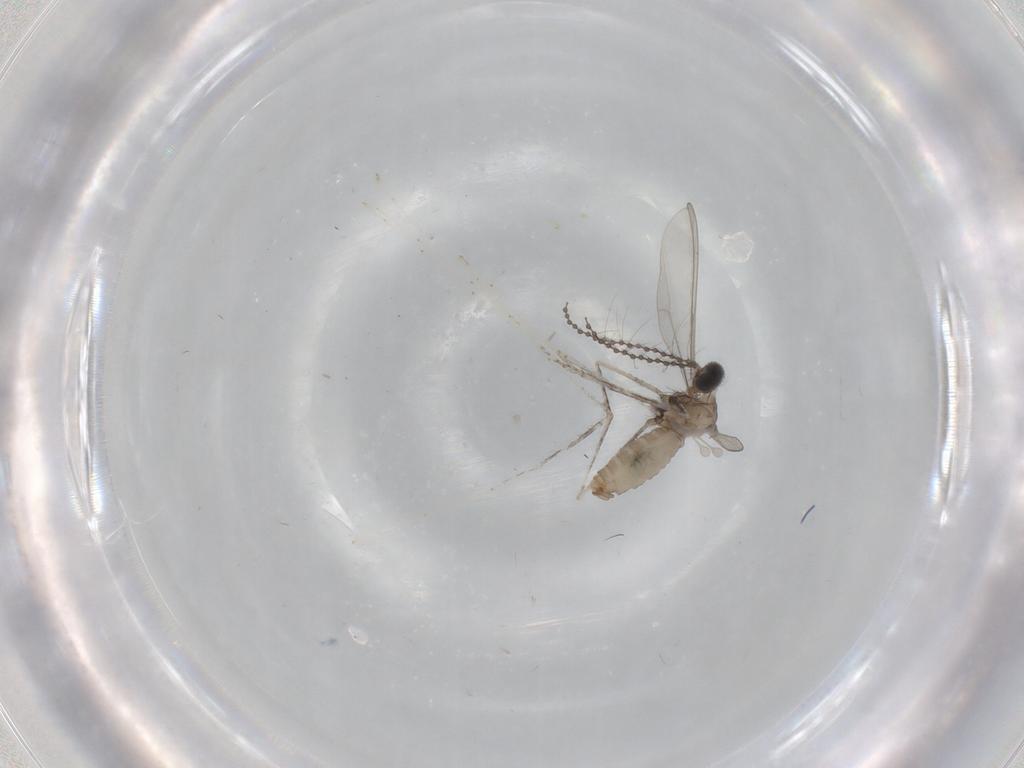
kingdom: Animalia
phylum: Arthropoda
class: Insecta
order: Diptera
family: Cecidomyiidae
